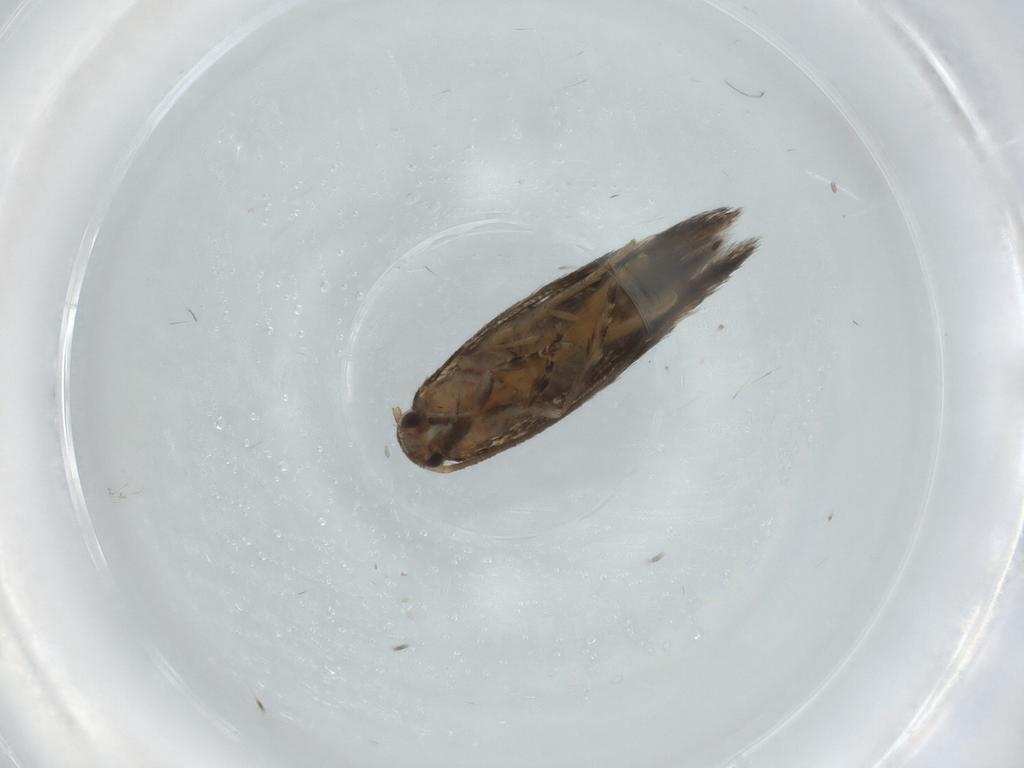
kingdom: Animalia
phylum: Arthropoda
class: Insecta
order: Lepidoptera
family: Elachistidae
